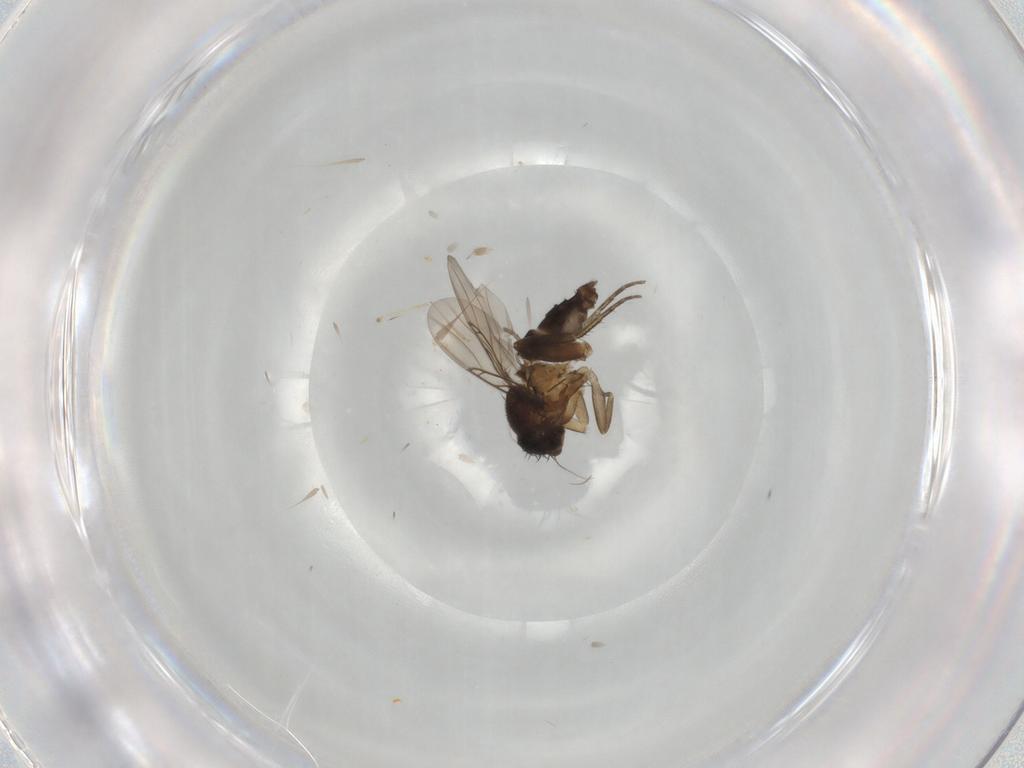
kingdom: Animalia
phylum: Arthropoda
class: Insecta
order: Diptera
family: Phoridae
